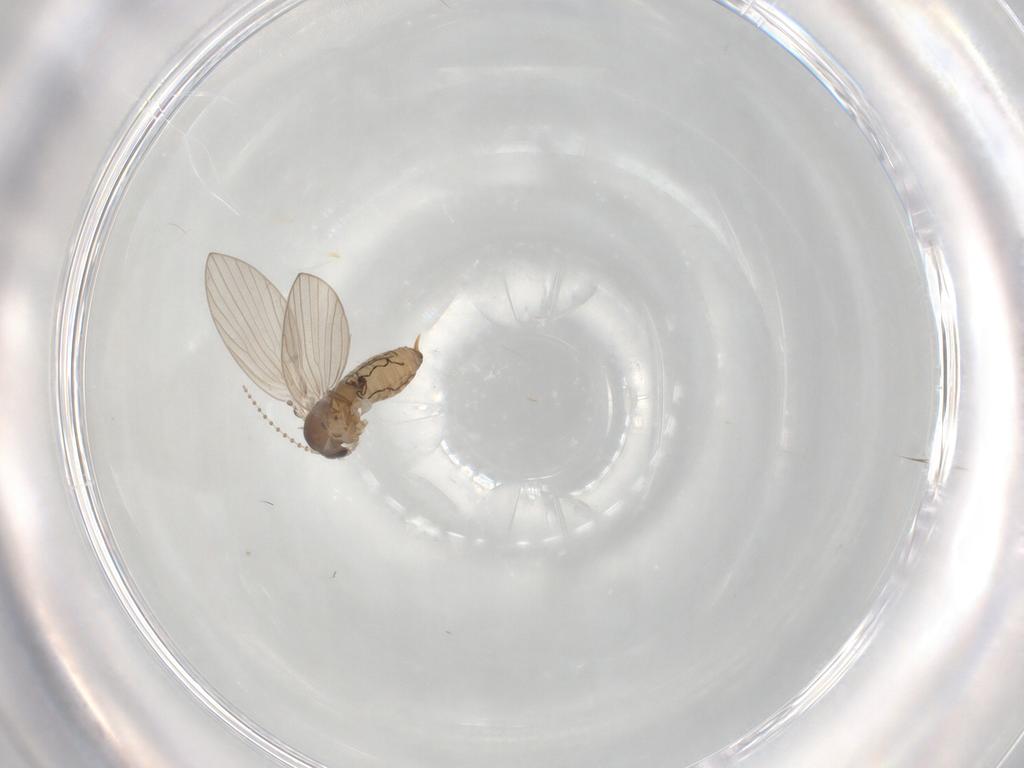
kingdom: Animalia
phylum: Arthropoda
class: Insecta
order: Diptera
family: Psychodidae
